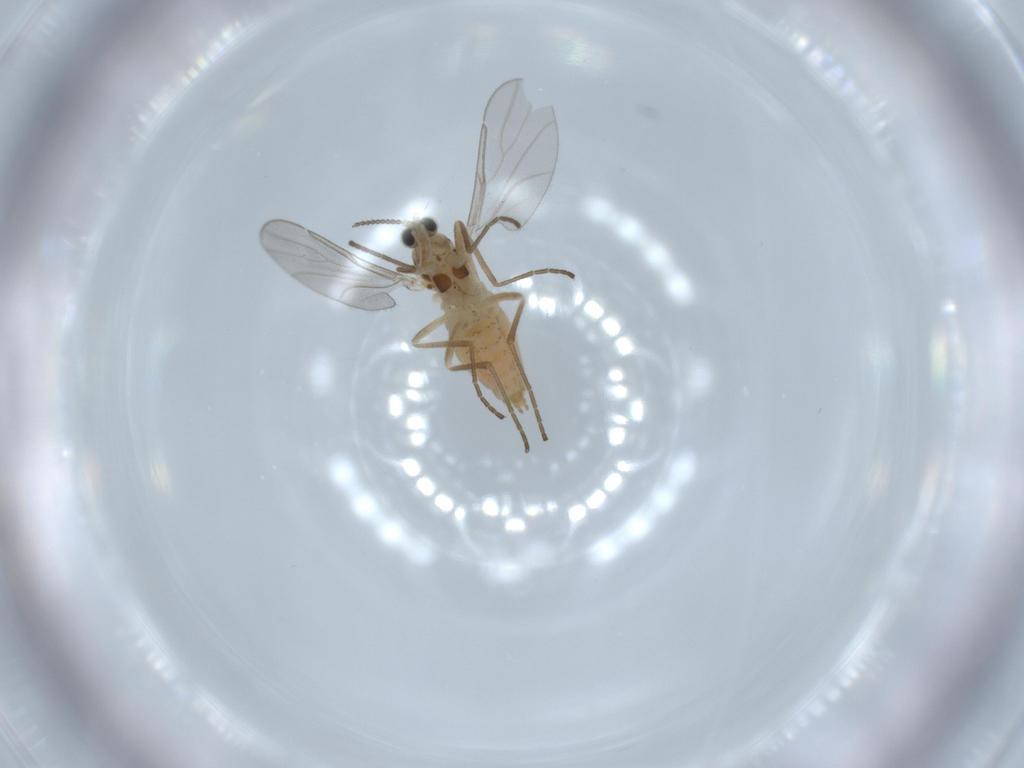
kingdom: Animalia
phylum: Arthropoda
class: Insecta
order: Diptera
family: Cecidomyiidae
